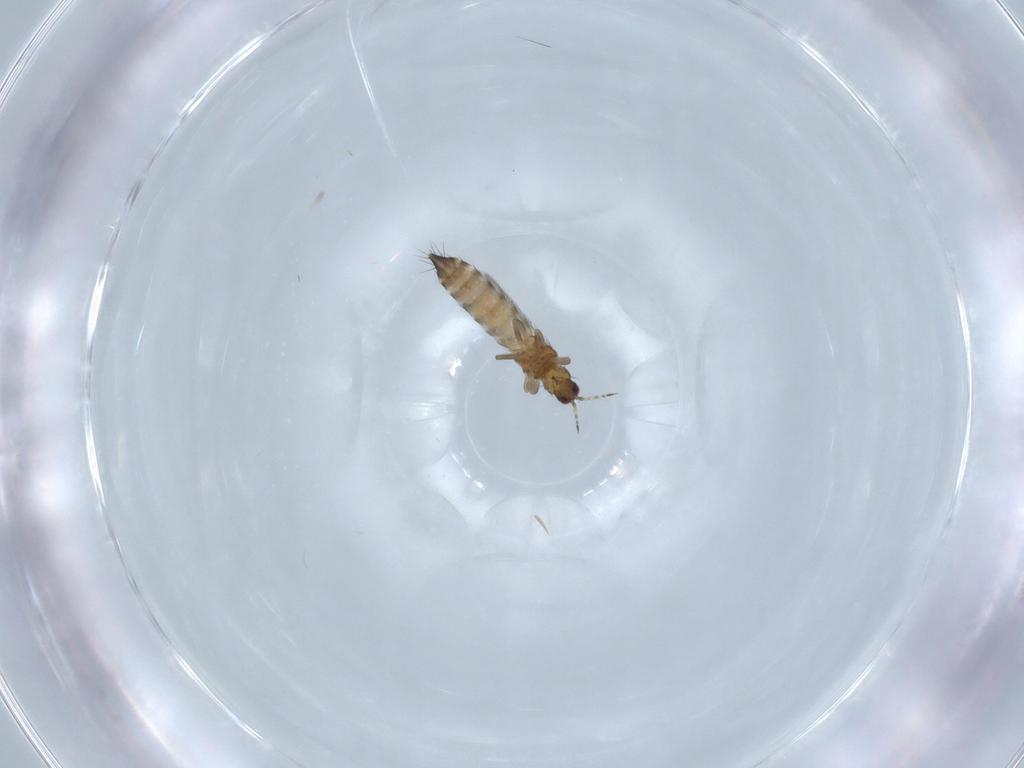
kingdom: Animalia
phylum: Arthropoda
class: Insecta
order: Thysanoptera
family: Thripidae
